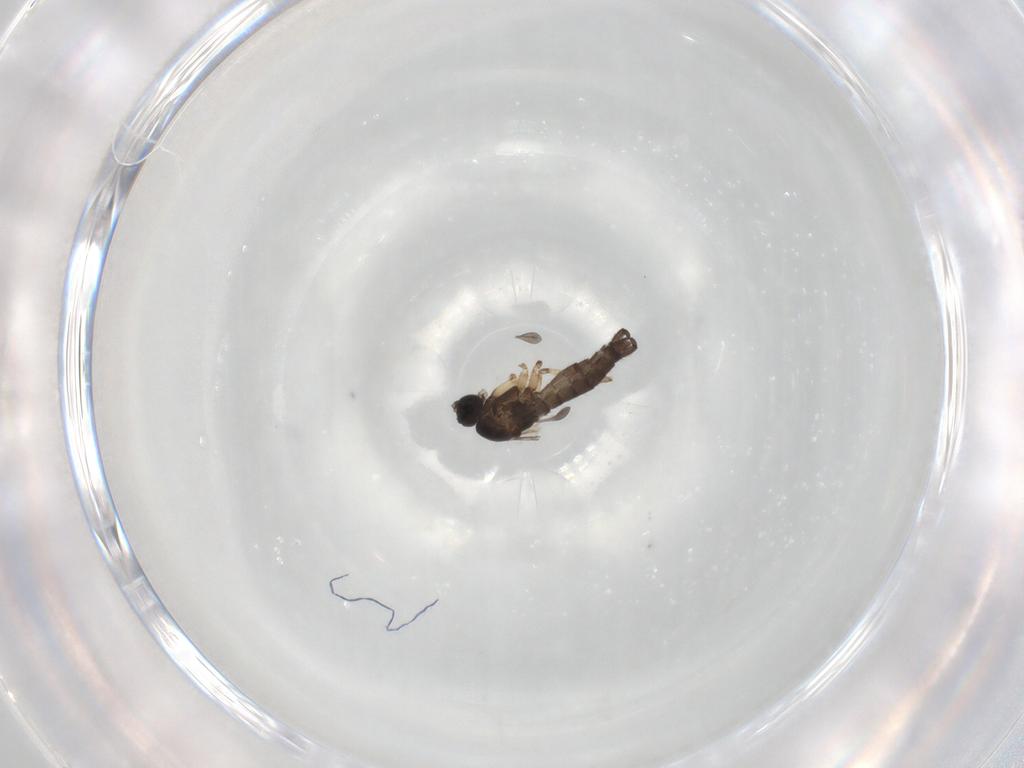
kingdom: Animalia
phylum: Arthropoda
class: Insecta
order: Diptera
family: Sciaridae
